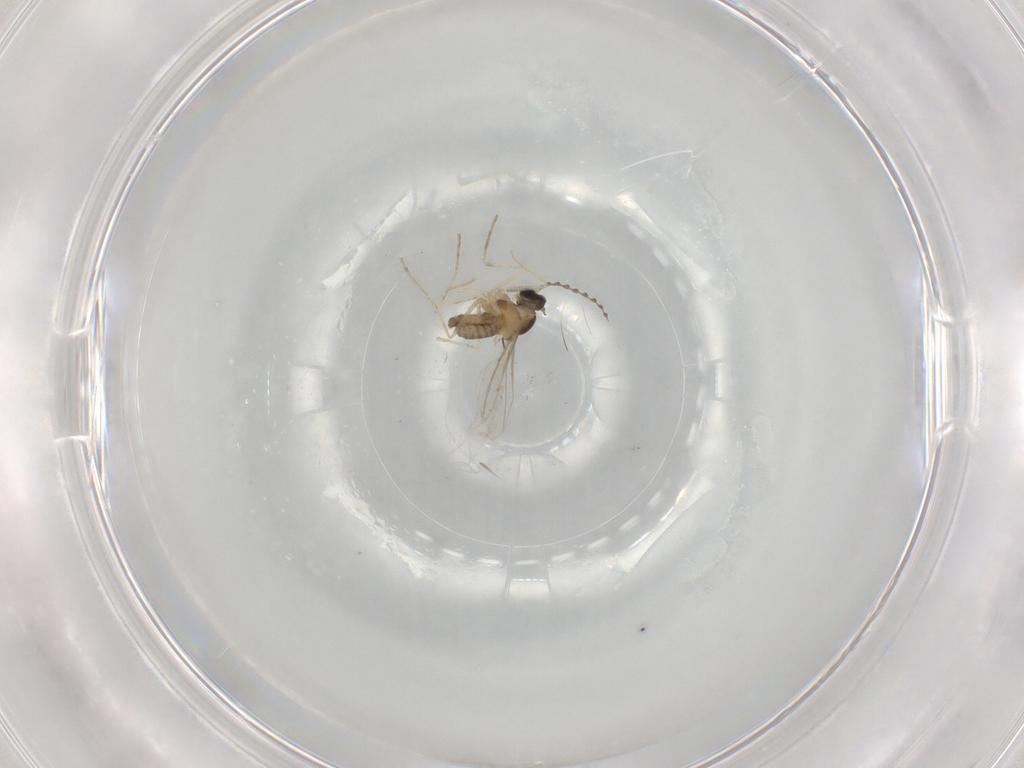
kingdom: Animalia
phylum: Arthropoda
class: Insecta
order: Diptera
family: Cecidomyiidae
